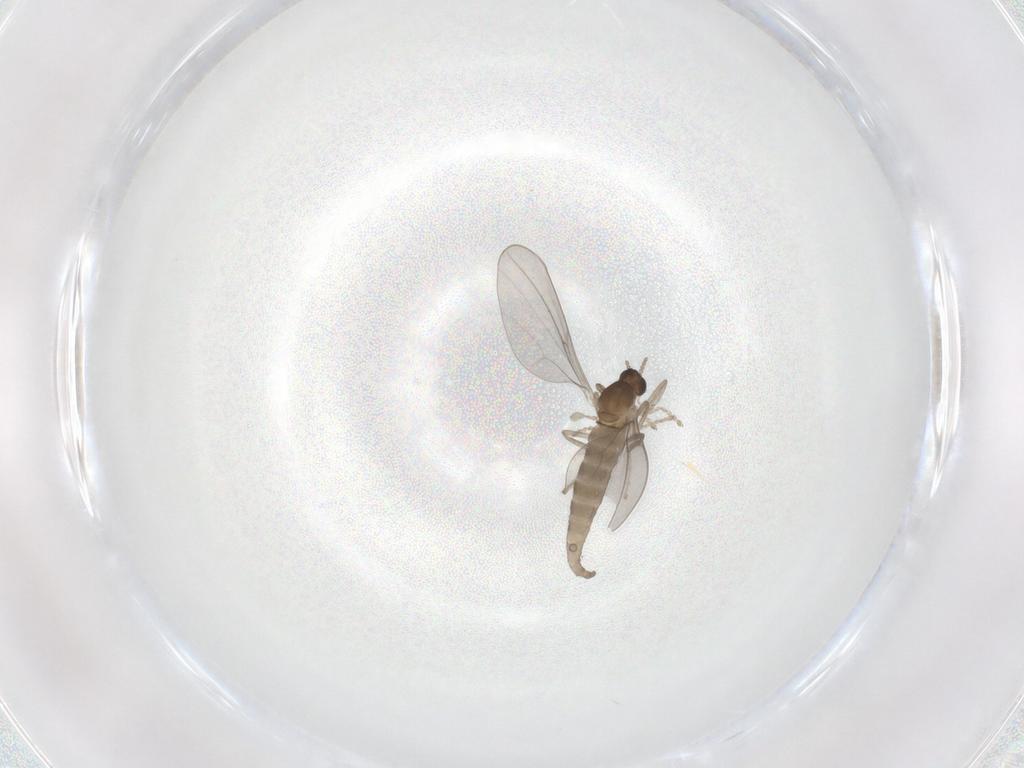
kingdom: Animalia
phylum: Arthropoda
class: Insecta
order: Diptera
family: Cecidomyiidae
